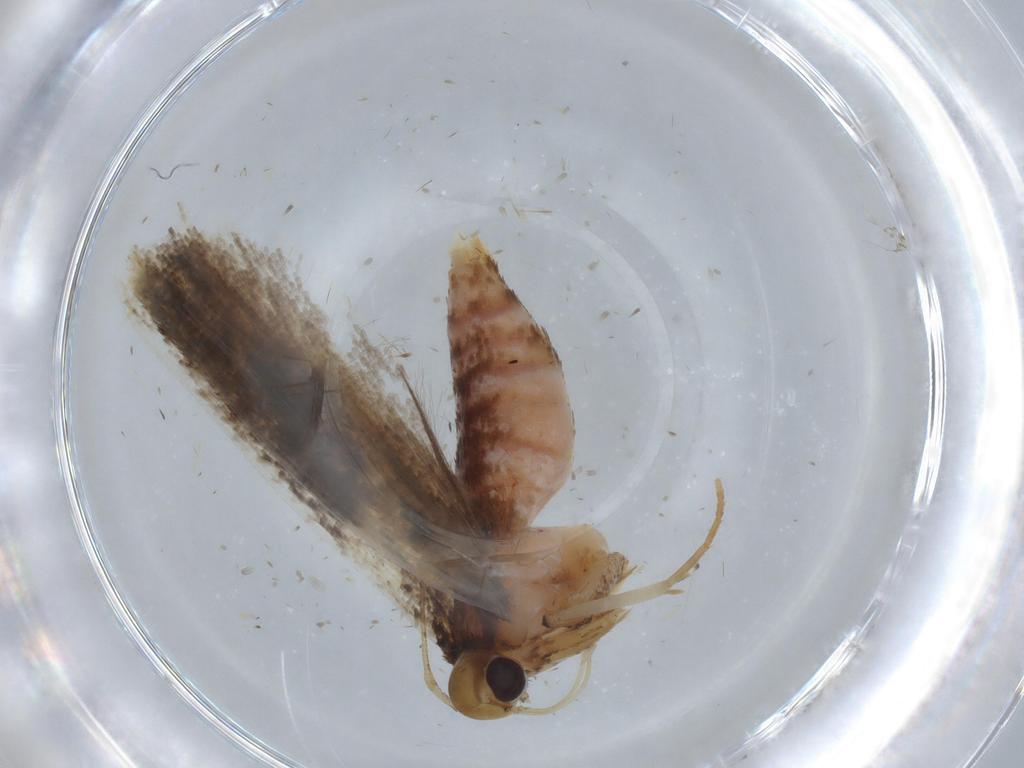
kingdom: Animalia
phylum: Arthropoda
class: Insecta
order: Lepidoptera
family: Gelechiidae
